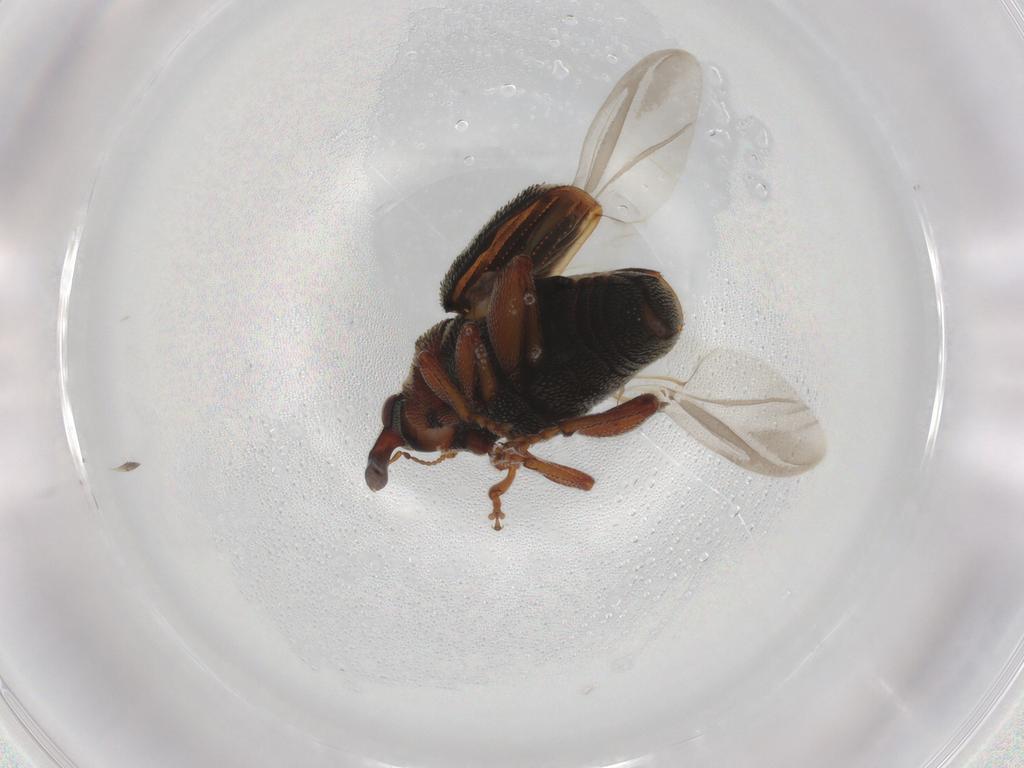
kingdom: Animalia
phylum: Arthropoda
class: Insecta
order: Coleoptera
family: Curculionidae
